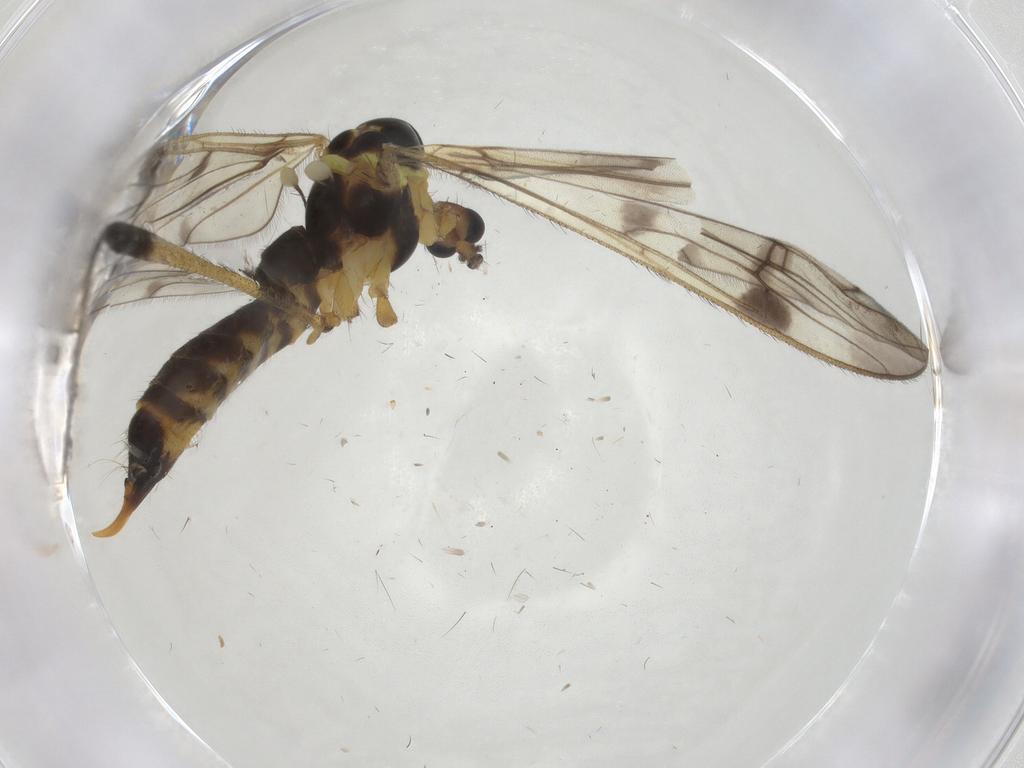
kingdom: Animalia
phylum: Arthropoda
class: Insecta
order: Diptera
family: Limoniidae
